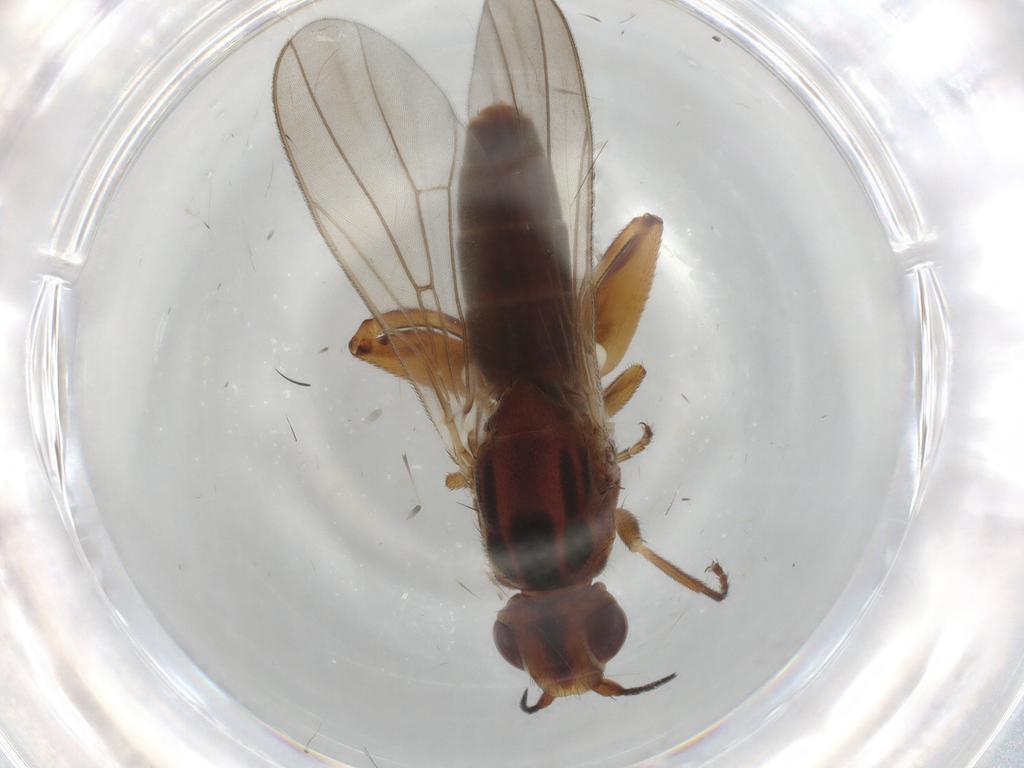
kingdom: Animalia
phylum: Arthropoda
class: Insecta
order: Diptera
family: Chloropidae
